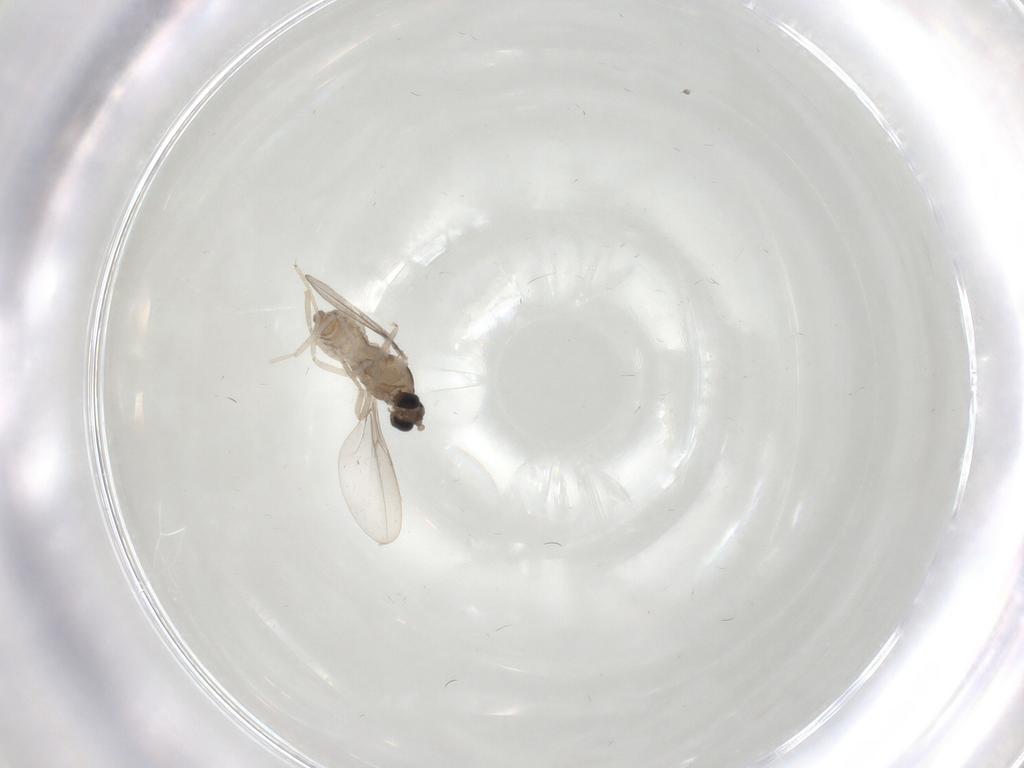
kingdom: Animalia
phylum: Arthropoda
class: Insecta
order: Diptera
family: Cecidomyiidae
